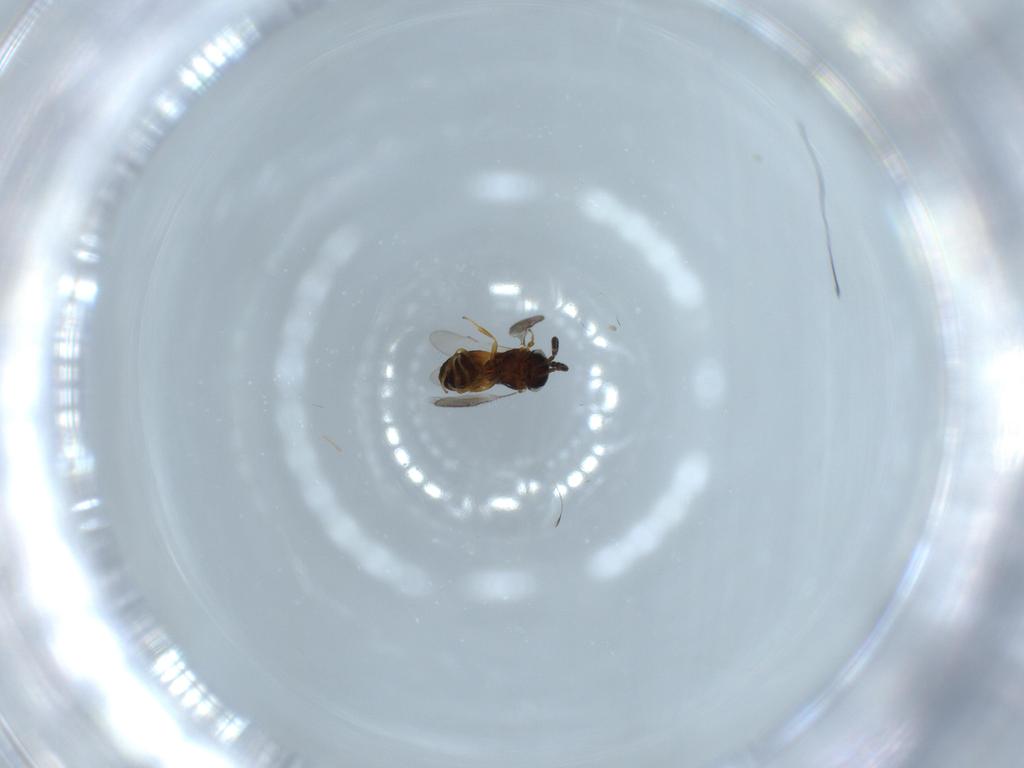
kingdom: Animalia
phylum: Arthropoda
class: Insecta
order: Hymenoptera
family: Scelionidae
